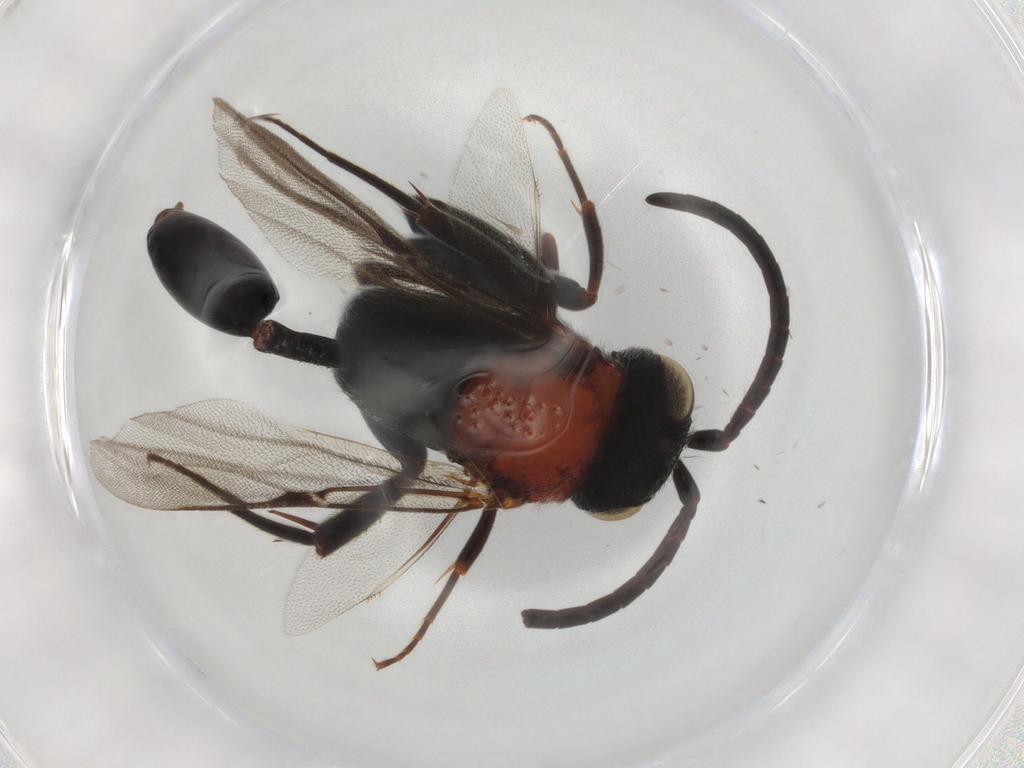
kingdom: Animalia
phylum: Arthropoda
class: Insecta
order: Hymenoptera
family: Evaniidae
